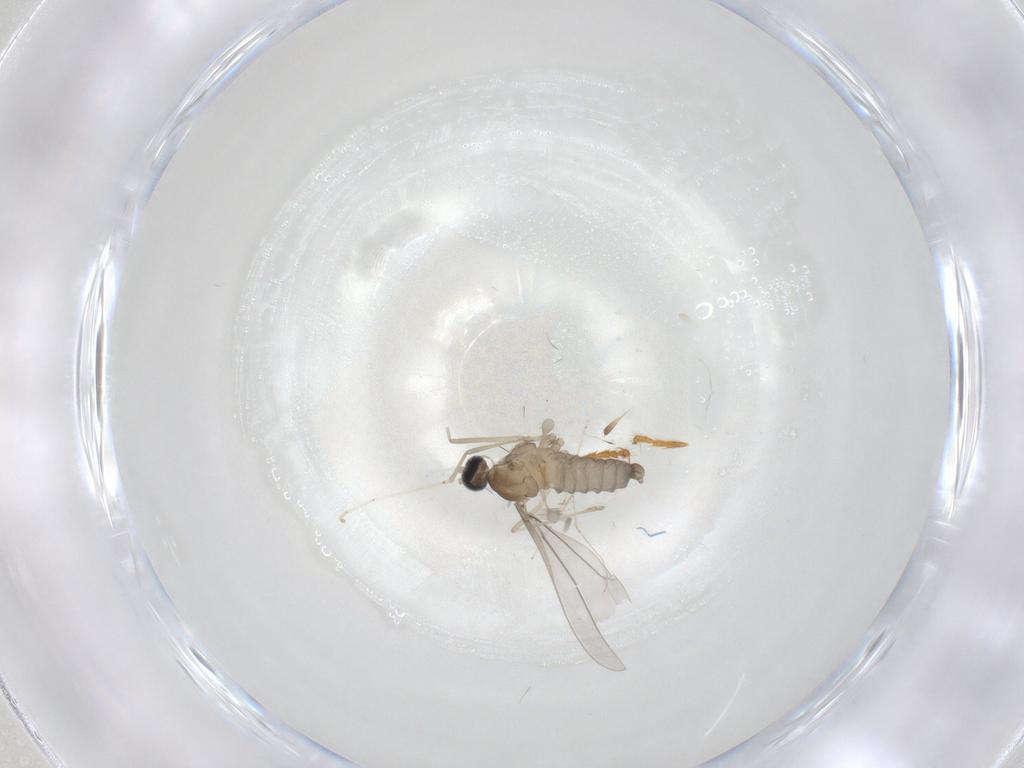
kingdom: Animalia
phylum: Arthropoda
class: Insecta
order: Diptera
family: Cecidomyiidae
